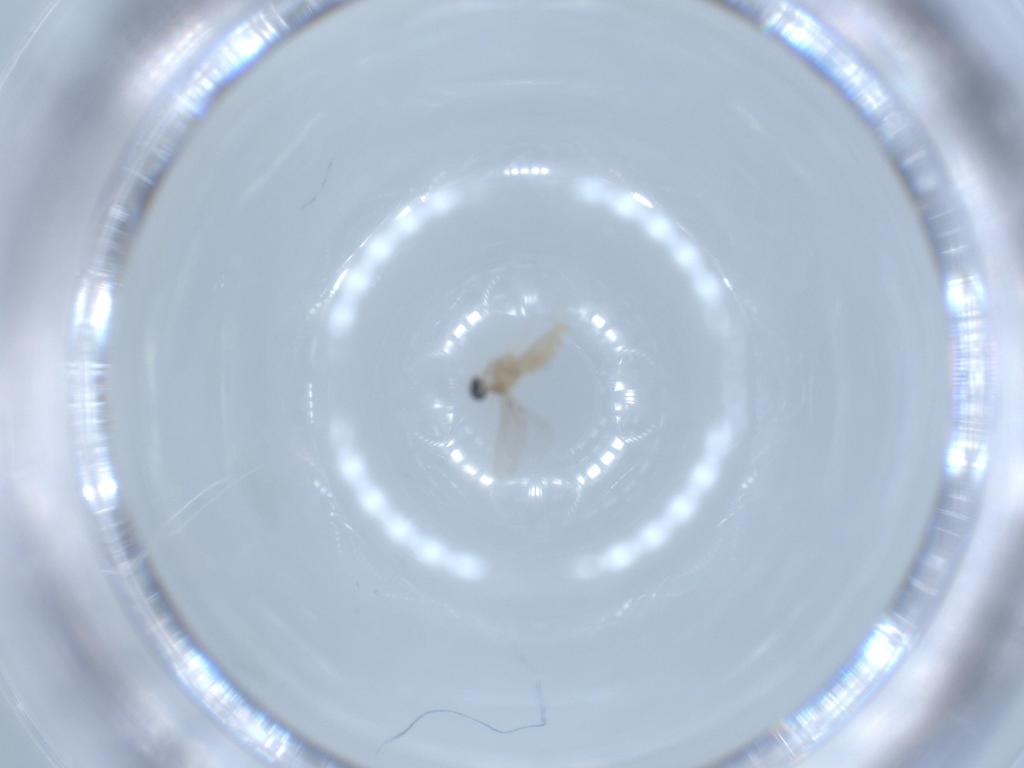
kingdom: Animalia
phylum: Arthropoda
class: Insecta
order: Diptera
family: Cecidomyiidae
